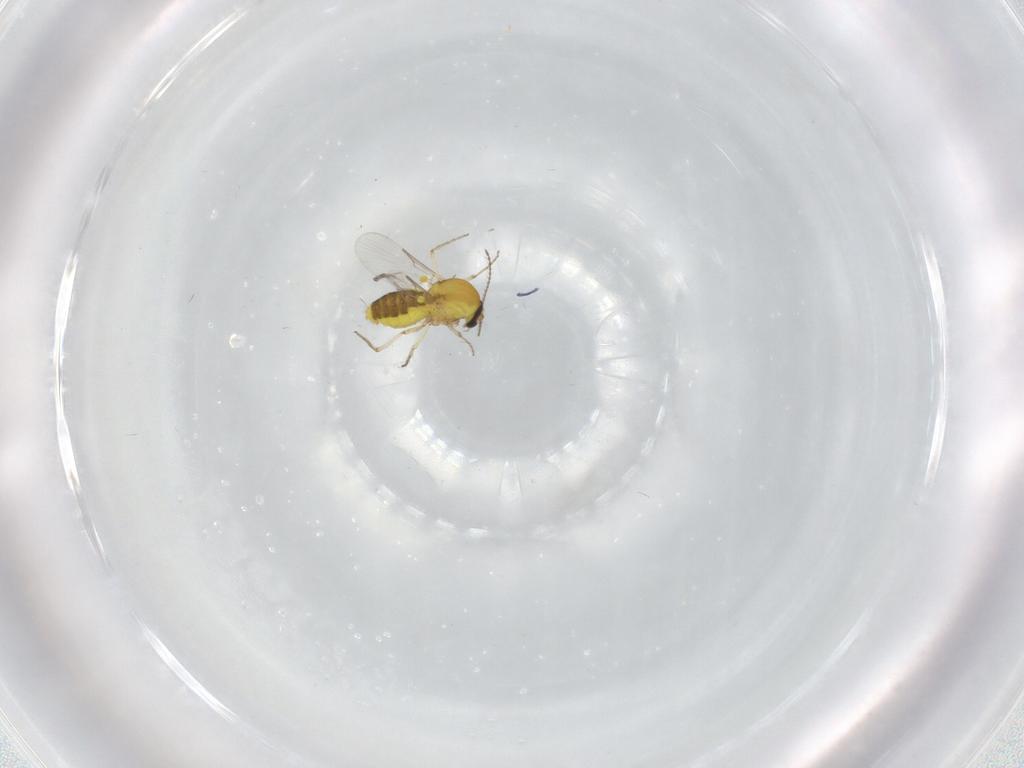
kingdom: Animalia
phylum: Arthropoda
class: Insecta
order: Diptera
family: Ceratopogonidae
